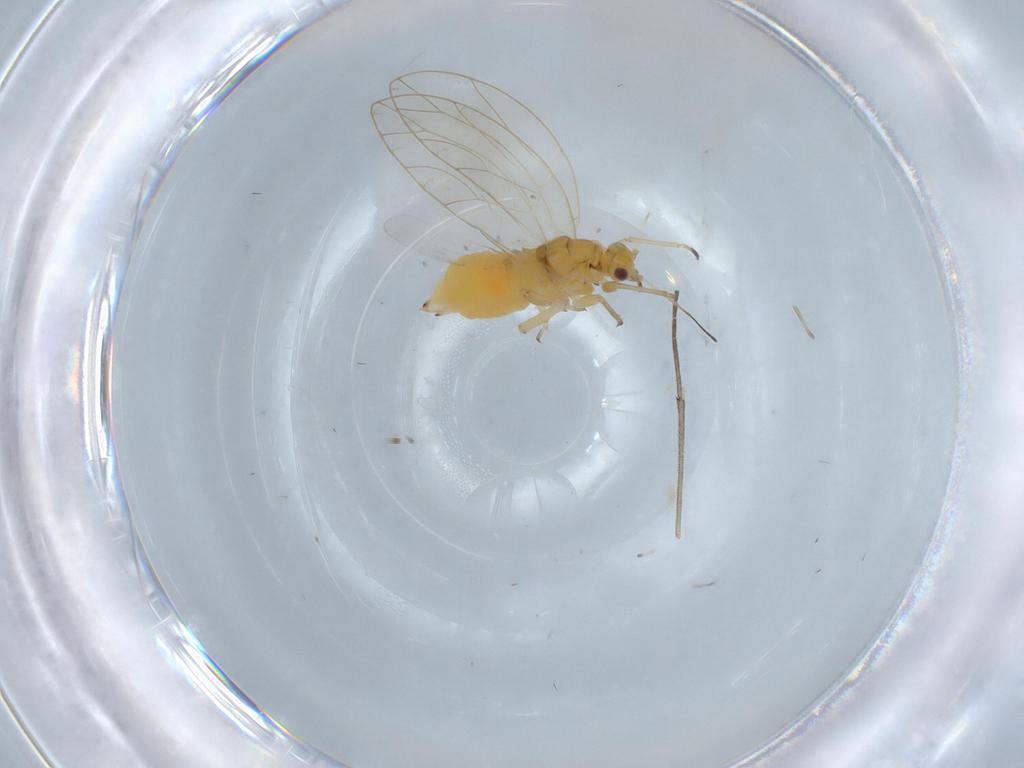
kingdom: Animalia
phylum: Arthropoda
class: Insecta
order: Hemiptera
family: Triozidae
